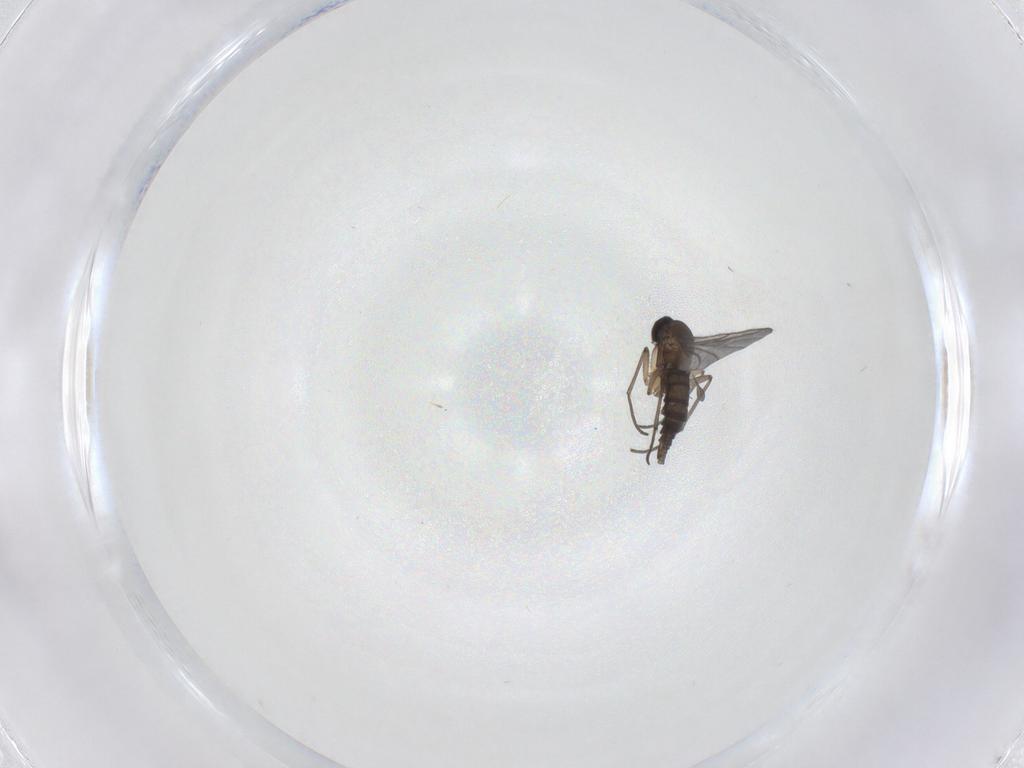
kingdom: Animalia
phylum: Arthropoda
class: Insecta
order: Diptera
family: Sciaridae
